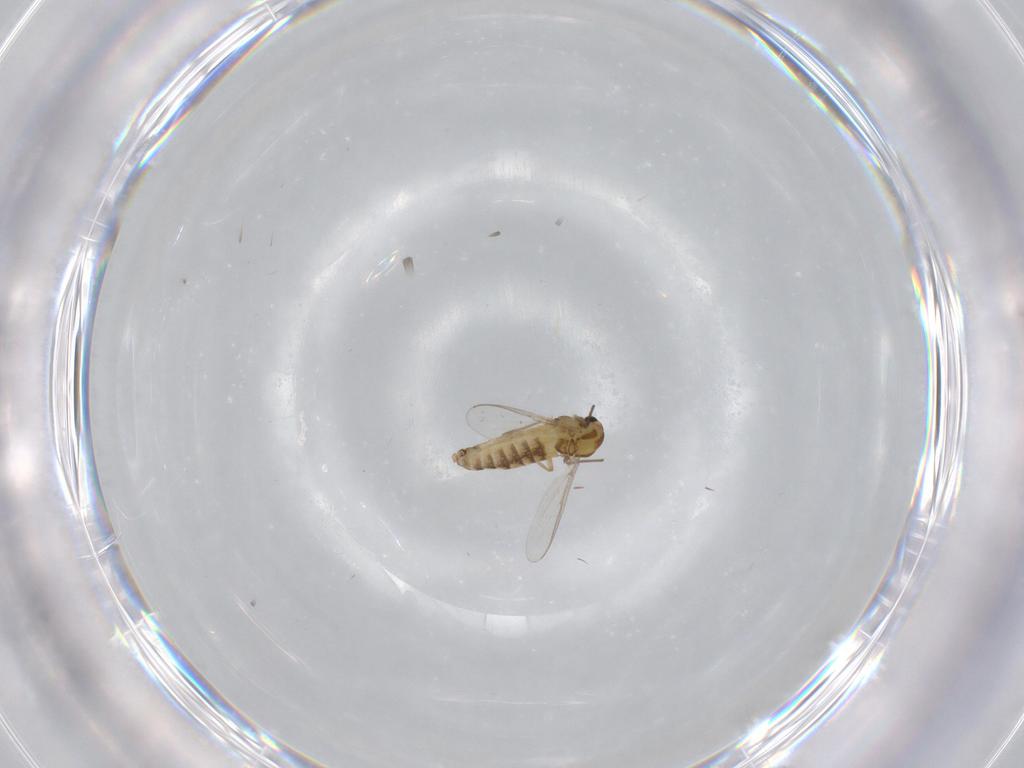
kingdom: Animalia
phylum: Arthropoda
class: Insecta
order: Diptera
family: Chironomidae
